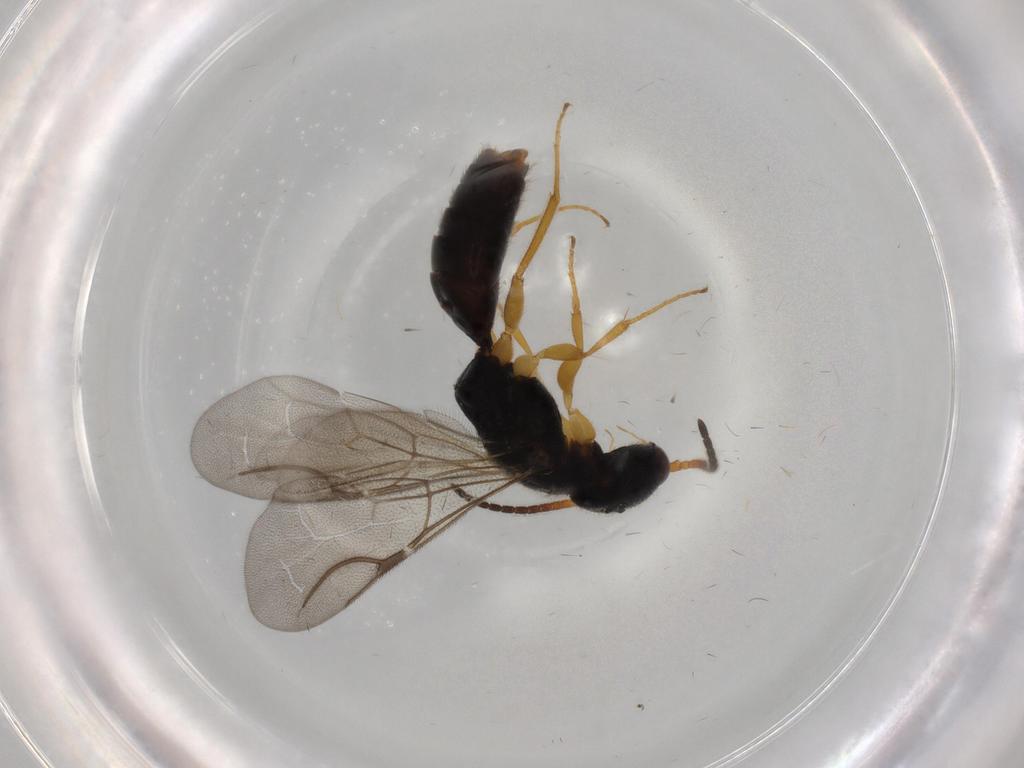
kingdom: Animalia
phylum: Arthropoda
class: Insecta
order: Hymenoptera
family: Bethylidae
